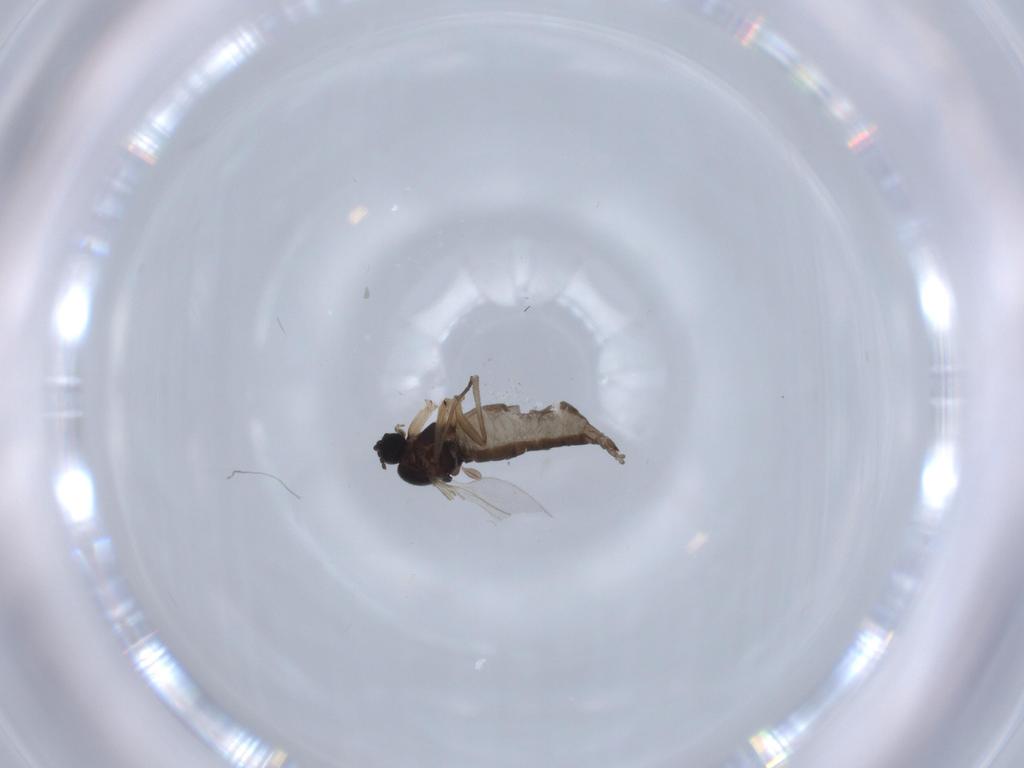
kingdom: Animalia
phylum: Arthropoda
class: Insecta
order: Diptera
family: Sciaridae
